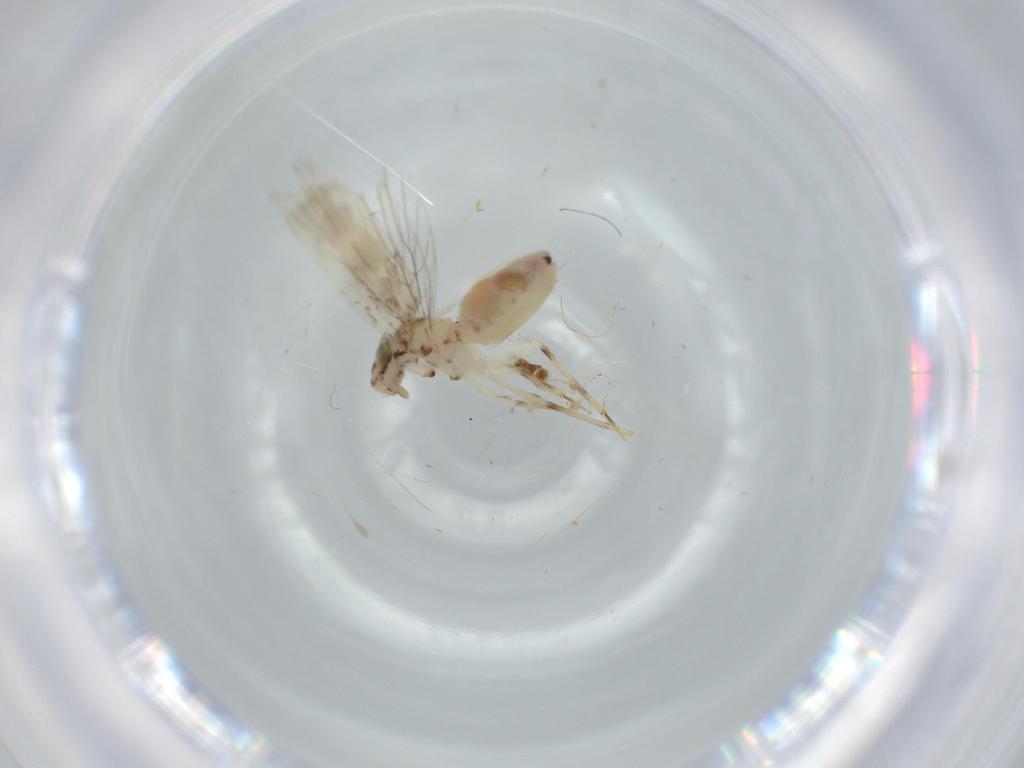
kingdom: Animalia
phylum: Arthropoda
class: Insecta
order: Psocodea
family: Lepidopsocidae
